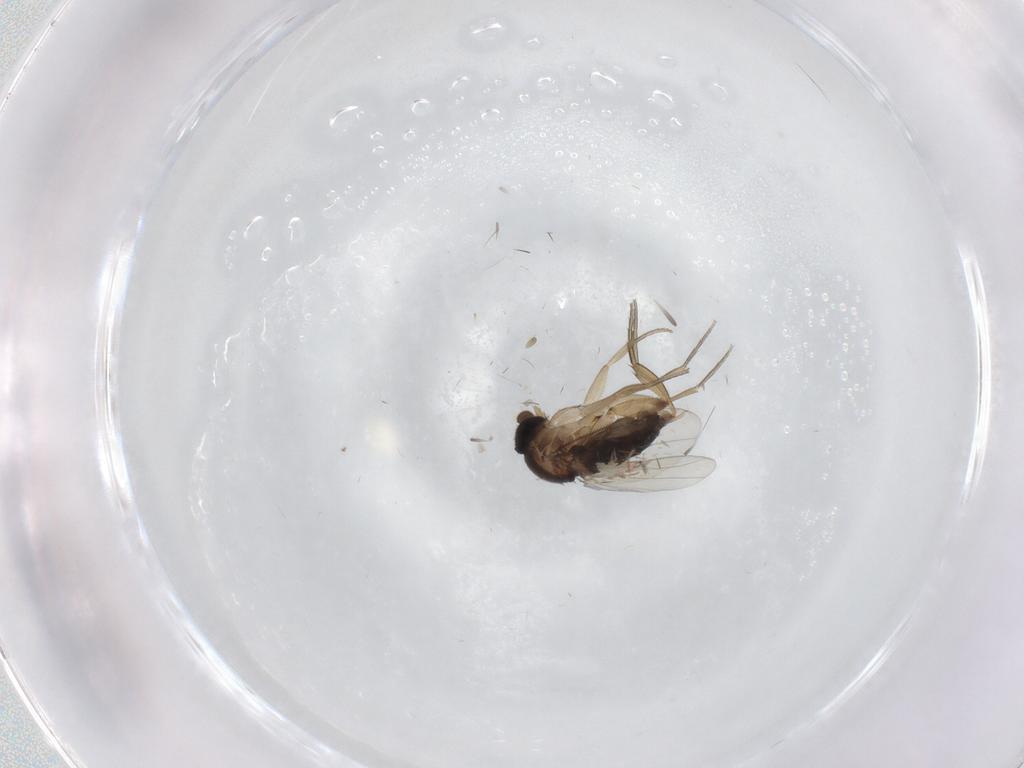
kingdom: Animalia
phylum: Arthropoda
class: Insecta
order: Diptera
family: Phoridae
